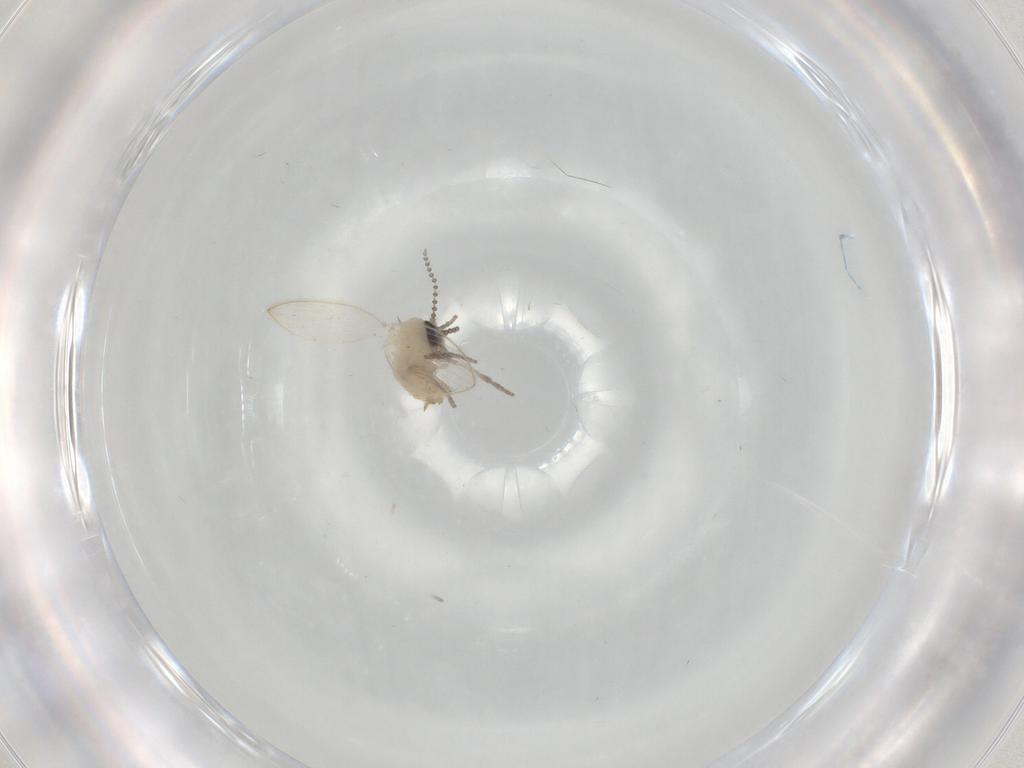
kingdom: Animalia
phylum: Arthropoda
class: Insecta
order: Diptera
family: Psychodidae
